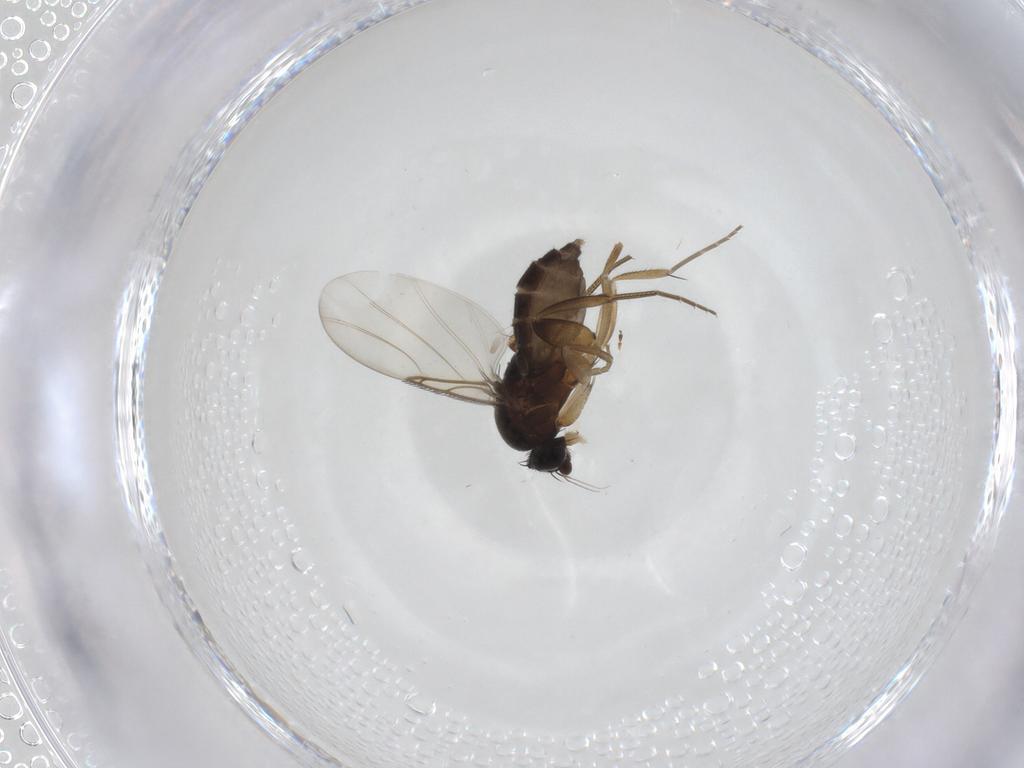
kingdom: Animalia
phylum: Arthropoda
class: Insecta
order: Diptera
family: Phoridae
